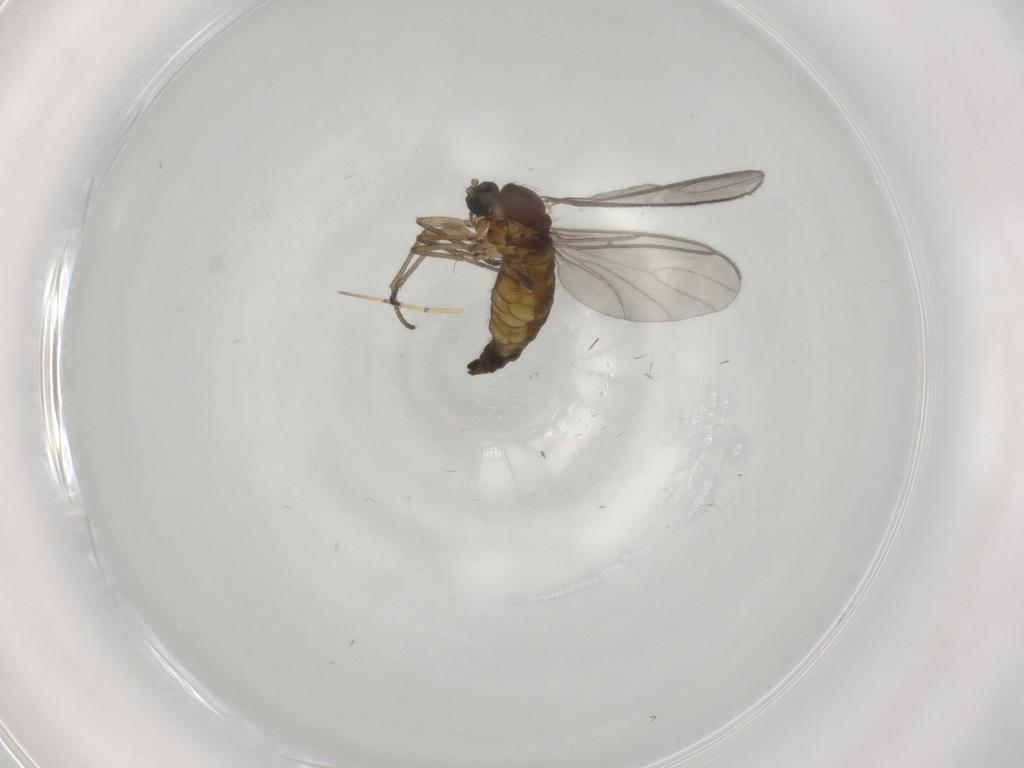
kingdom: Animalia
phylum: Arthropoda
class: Insecta
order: Diptera
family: Sciaridae
